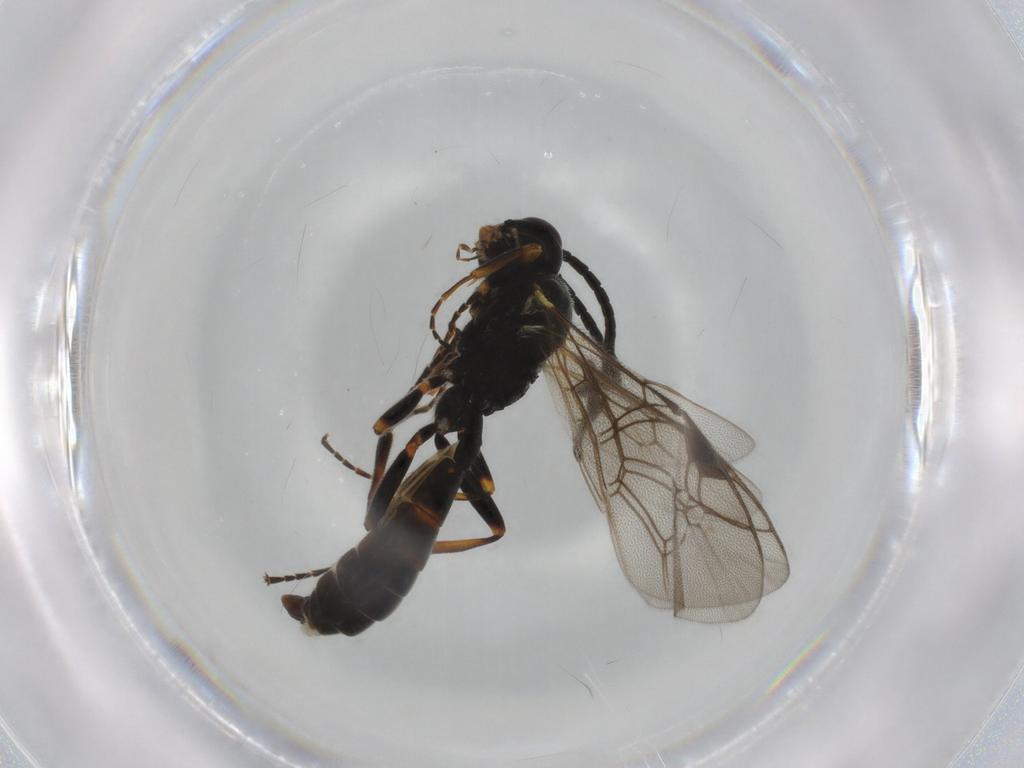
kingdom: Animalia
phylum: Arthropoda
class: Insecta
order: Hymenoptera
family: Ichneumonidae
